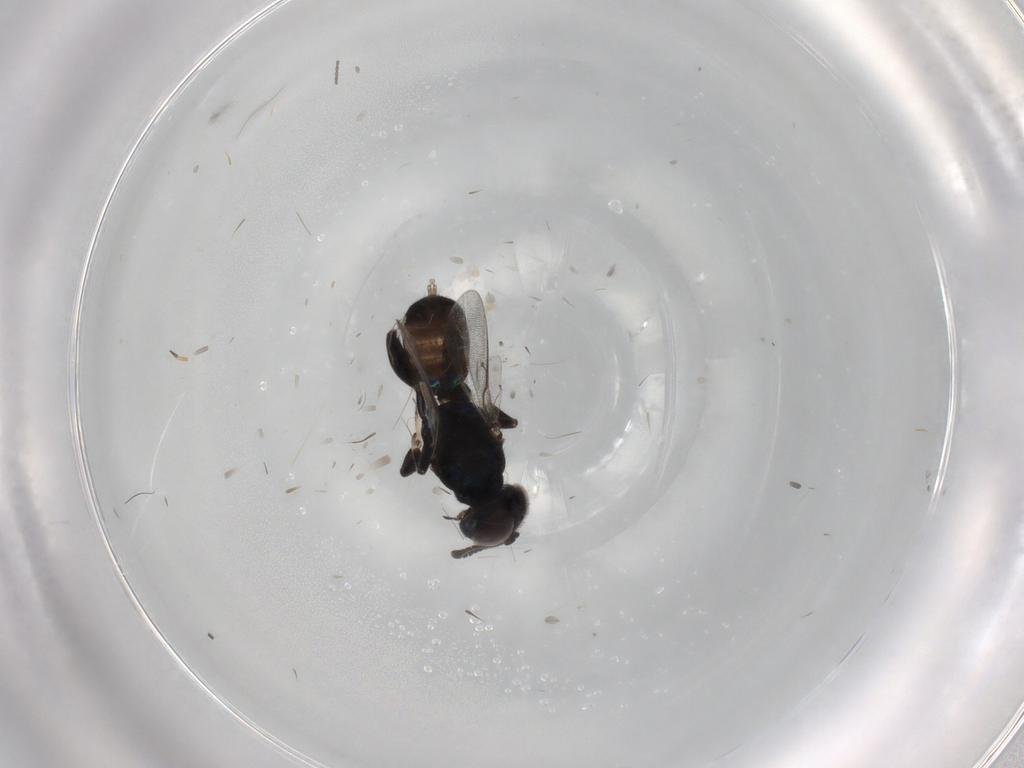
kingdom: Animalia
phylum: Arthropoda
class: Insecta
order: Hymenoptera
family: Pteromalidae
